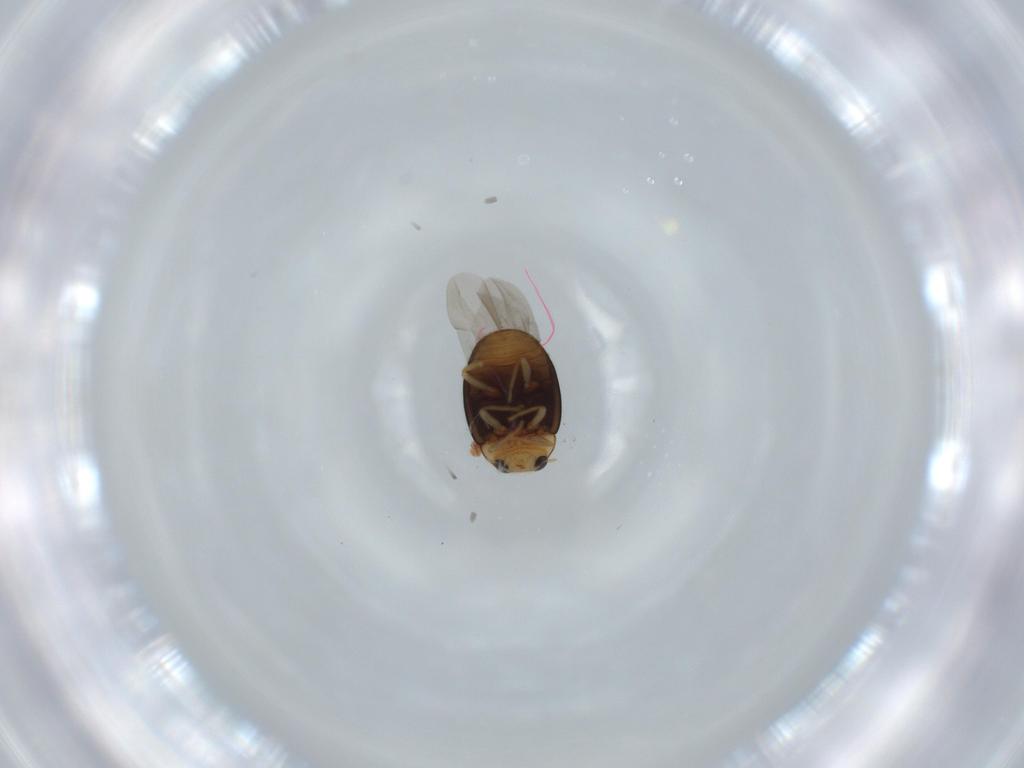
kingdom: Animalia
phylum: Arthropoda
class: Insecta
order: Coleoptera
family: Coccinellidae
